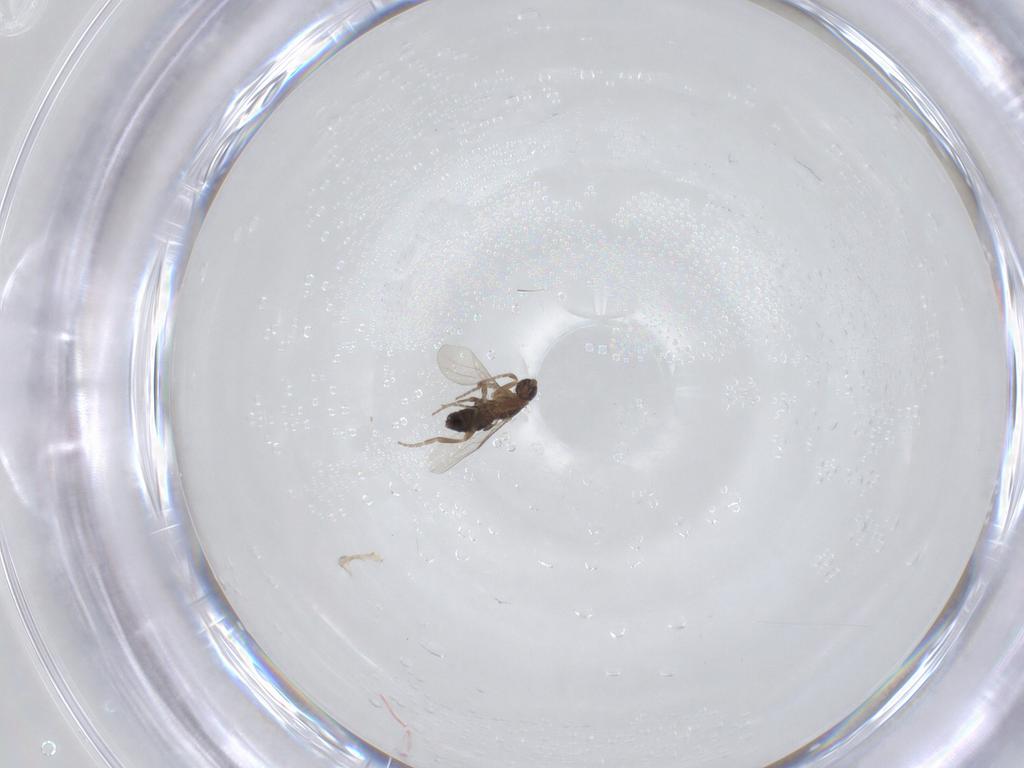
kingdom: Animalia
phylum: Arthropoda
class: Insecta
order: Diptera
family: Phoridae
